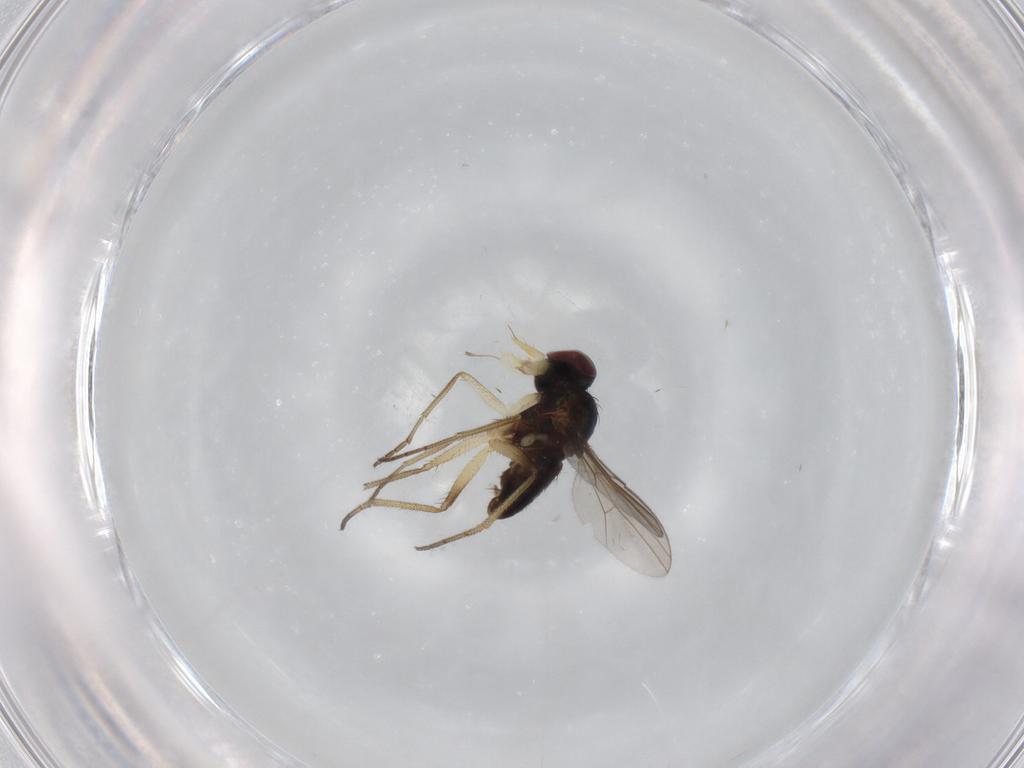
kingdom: Animalia
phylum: Arthropoda
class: Insecta
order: Diptera
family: Dolichopodidae
